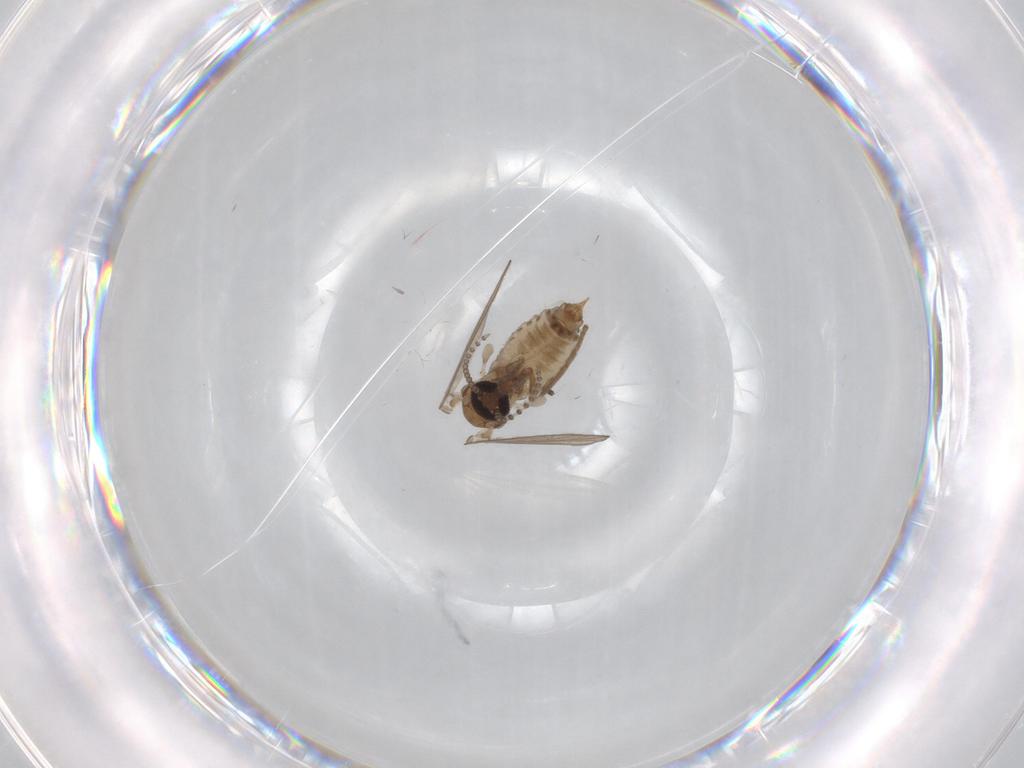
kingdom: Animalia
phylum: Arthropoda
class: Insecta
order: Diptera
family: Psychodidae
